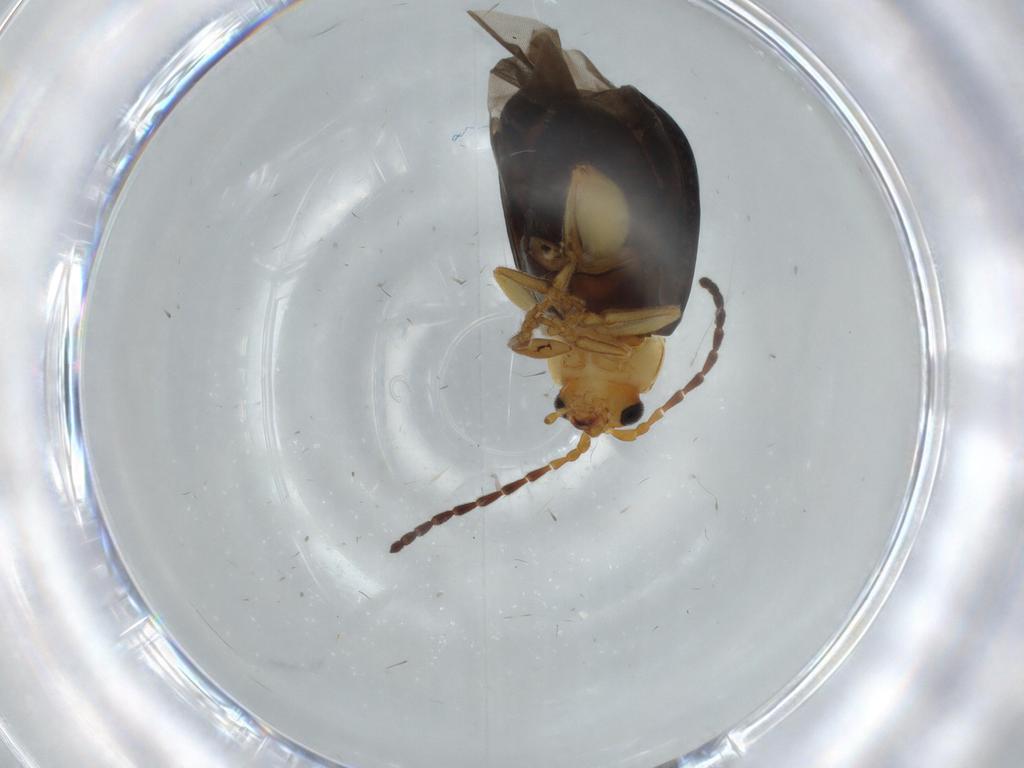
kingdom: Animalia
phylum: Arthropoda
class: Insecta
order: Coleoptera
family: Chrysomelidae
